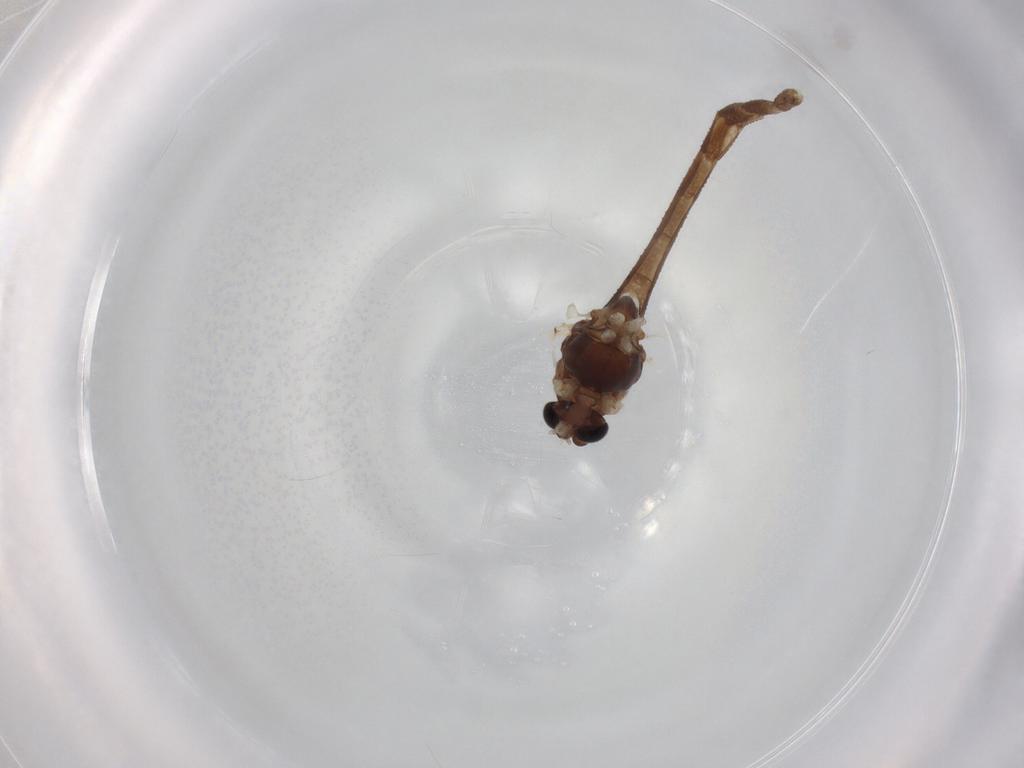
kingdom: Animalia
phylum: Arthropoda
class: Insecta
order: Diptera
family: Chironomidae
